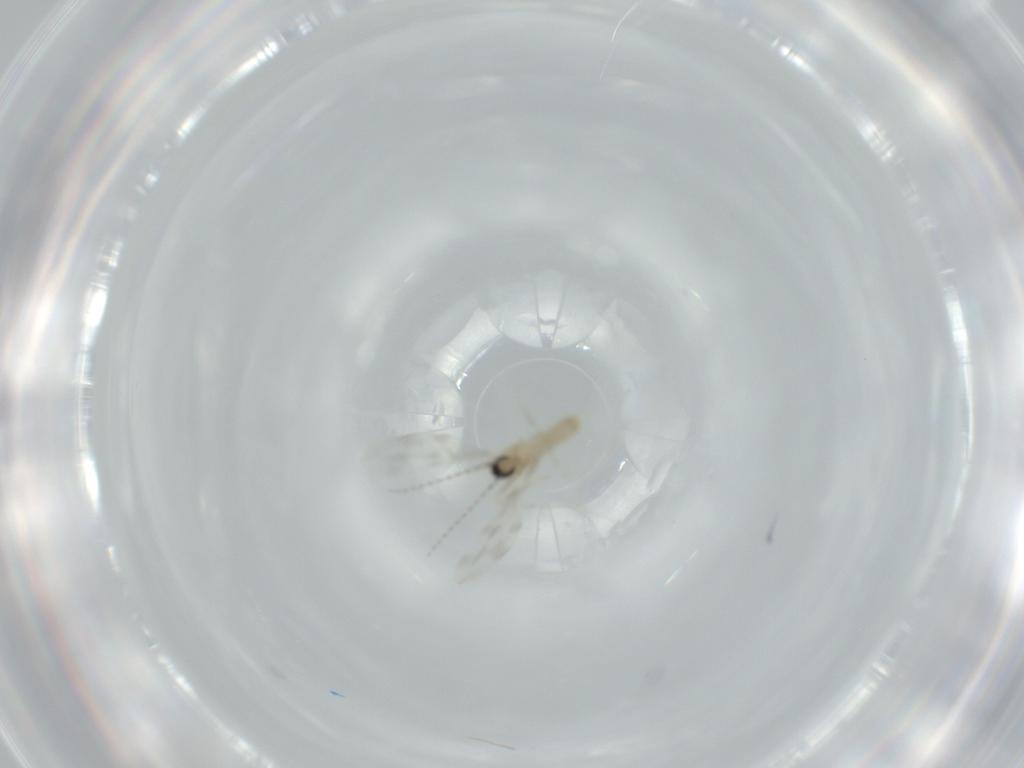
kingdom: Animalia
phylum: Arthropoda
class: Insecta
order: Diptera
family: Cecidomyiidae
